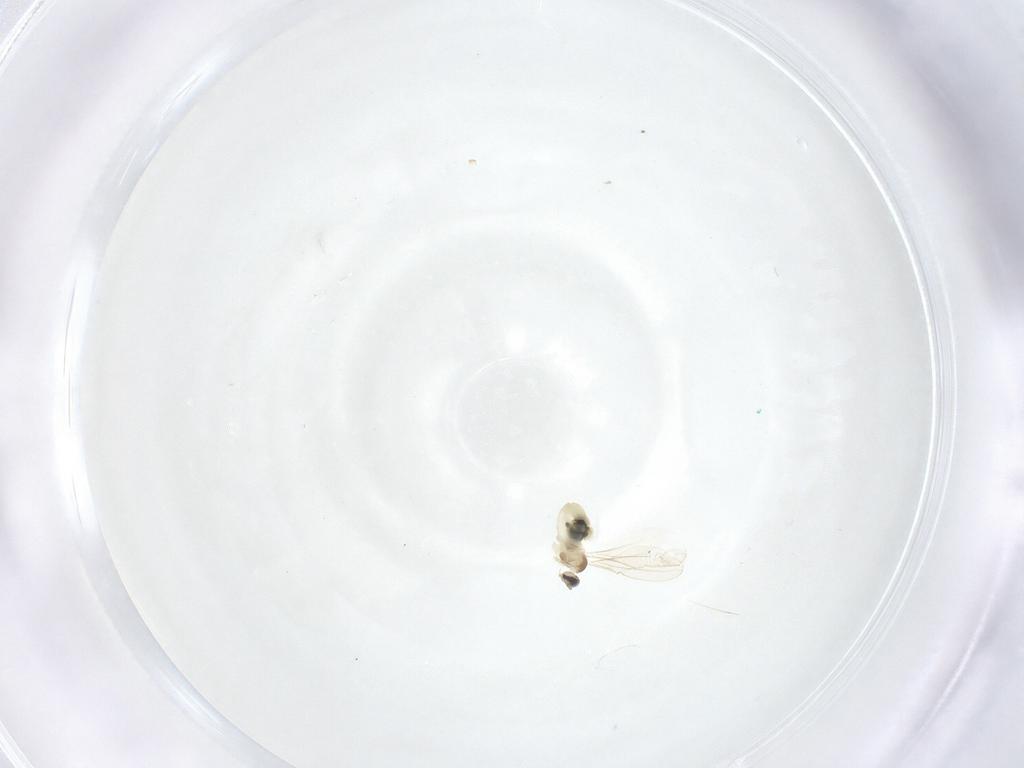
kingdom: Animalia
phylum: Arthropoda
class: Insecta
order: Diptera
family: Cecidomyiidae
